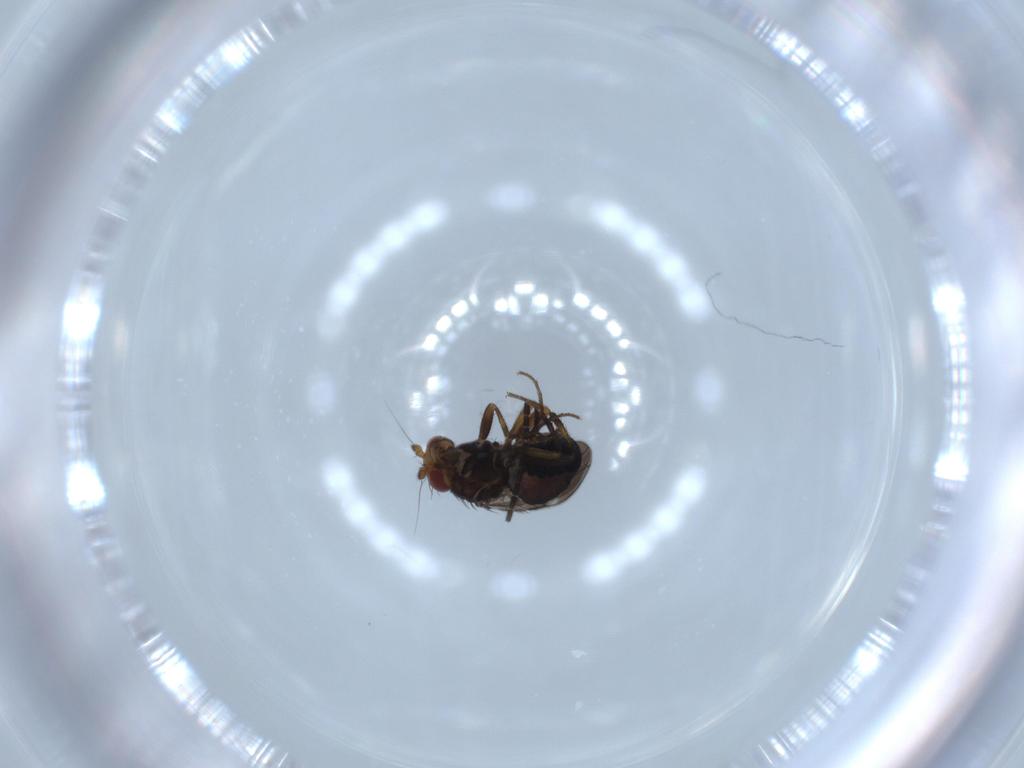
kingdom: Animalia
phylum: Arthropoda
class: Insecta
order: Diptera
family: Sciaridae
